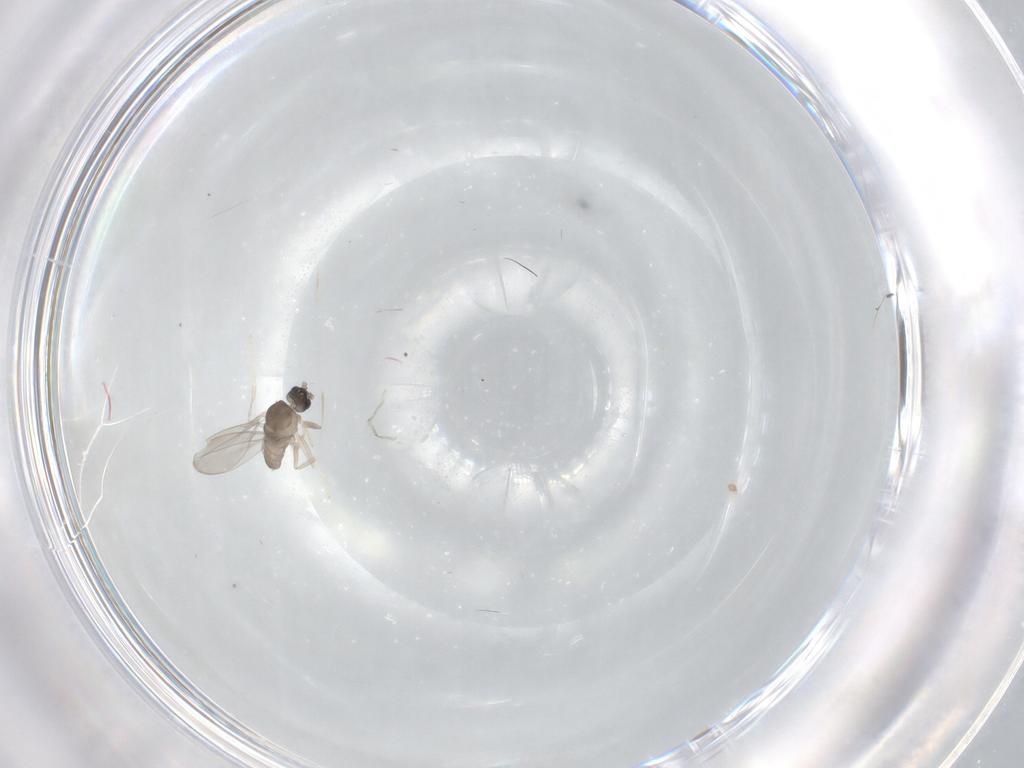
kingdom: Animalia
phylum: Arthropoda
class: Insecta
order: Diptera
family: Cecidomyiidae
